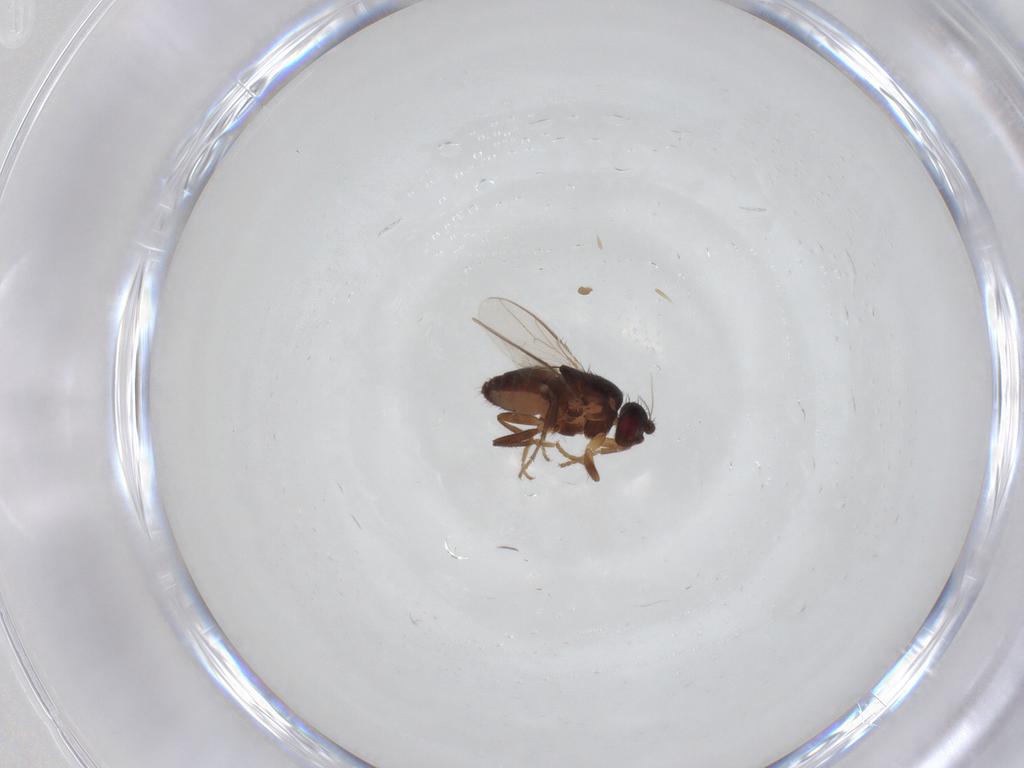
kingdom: Animalia
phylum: Arthropoda
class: Insecta
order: Diptera
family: Sphaeroceridae
